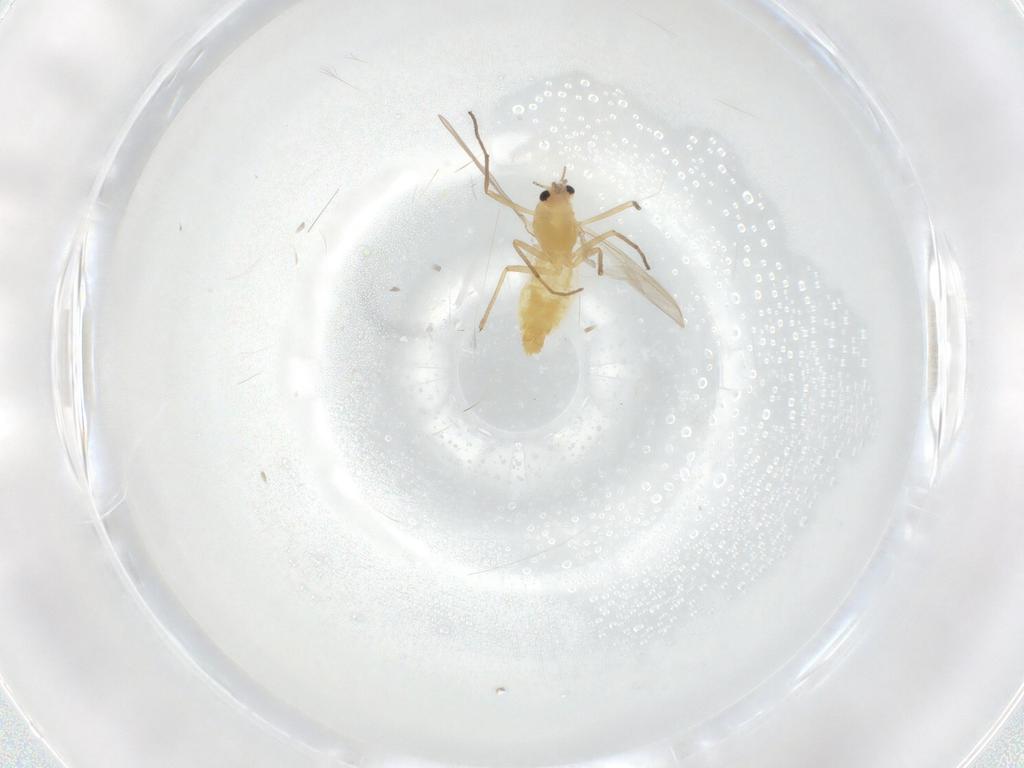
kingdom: Animalia
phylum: Arthropoda
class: Insecta
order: Diptera
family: Chironomidae
